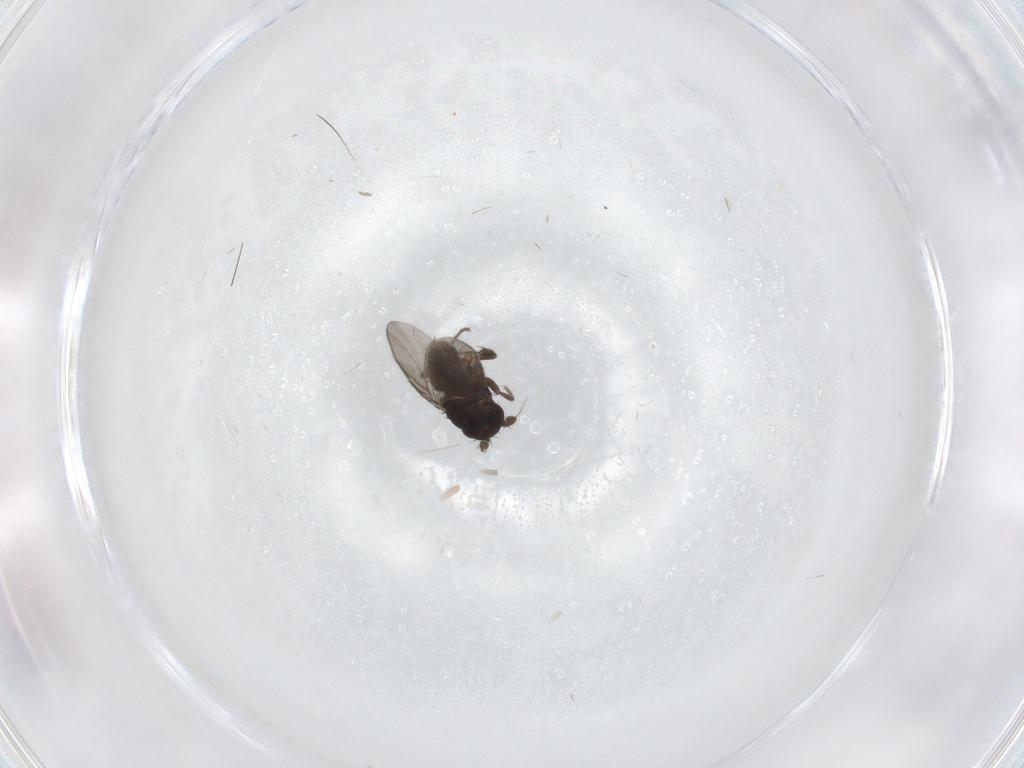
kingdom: Animalia
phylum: Arthropoda
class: Insecta
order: Diptera
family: Sphaeroceridae
